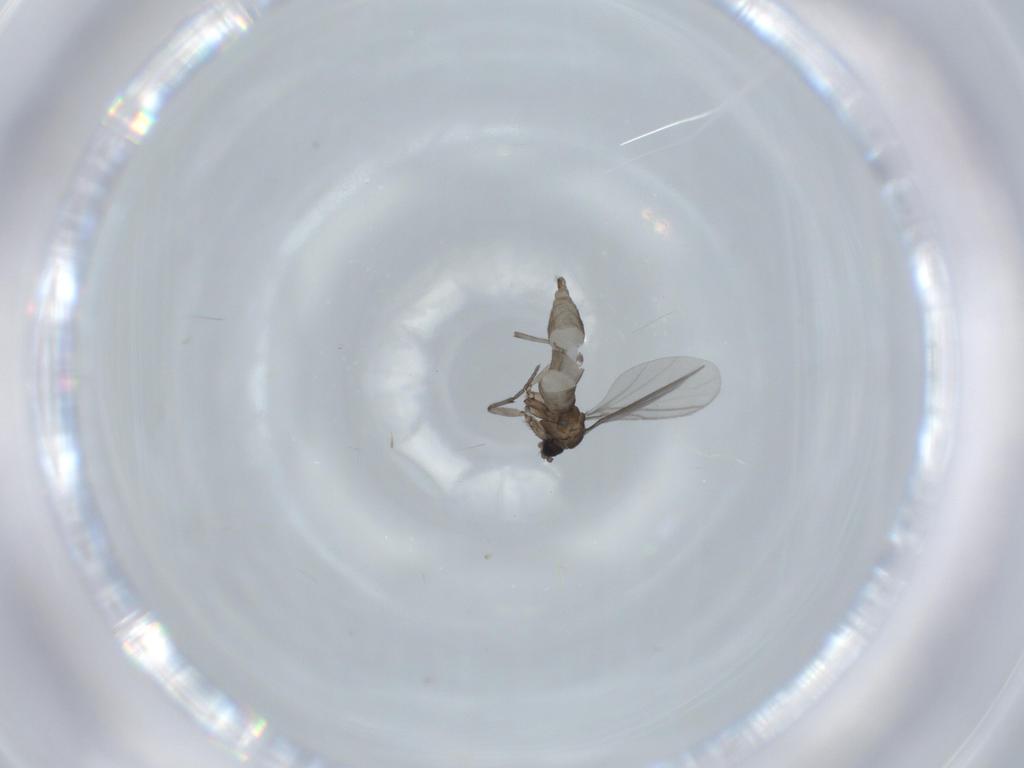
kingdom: Animalia
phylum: Arthropoda
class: Insecta
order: Diptera
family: Sciaridae
